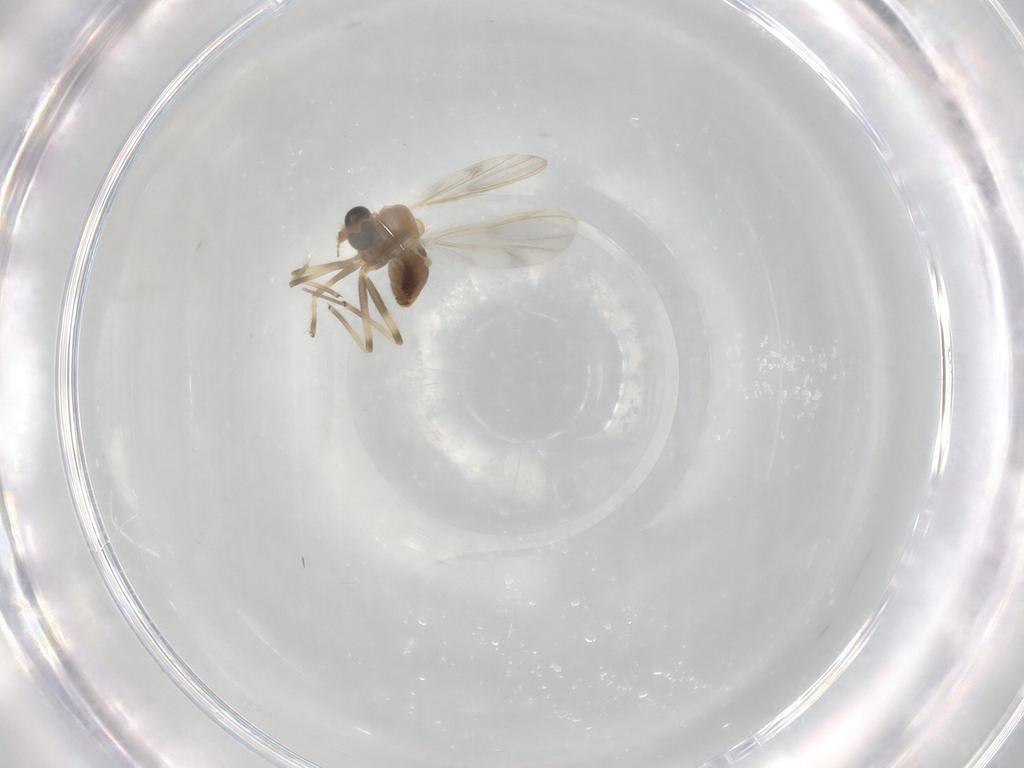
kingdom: Animalia
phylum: Arthropoda
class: Insecta
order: Diptera
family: Chironomidae
